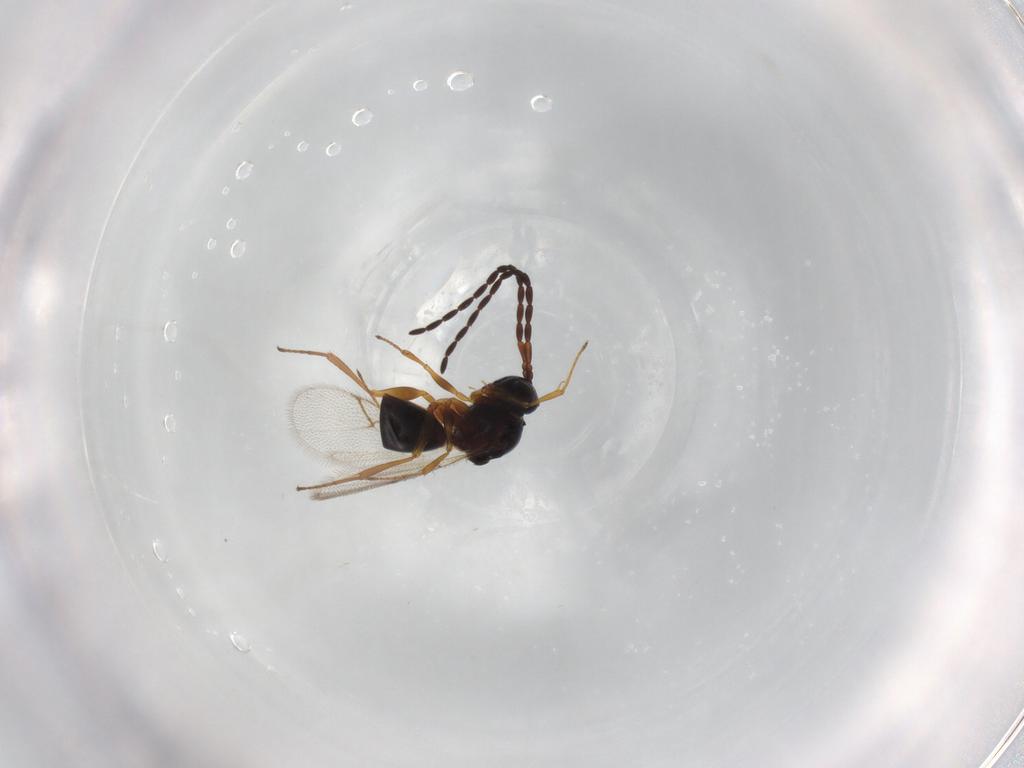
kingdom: Animalia
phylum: Arthropoda
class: Insecta
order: Hymenoptera
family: Figitidae
